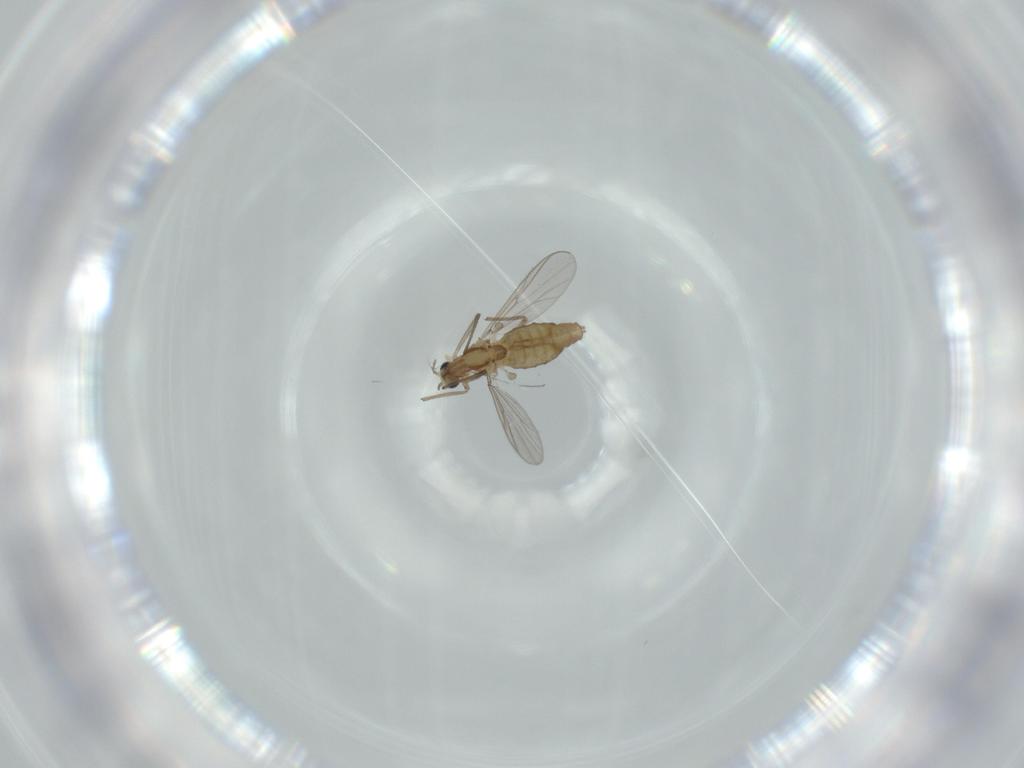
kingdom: Animalia
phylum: Arthropoda
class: Insecta
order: Diptera
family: Chironomidae
